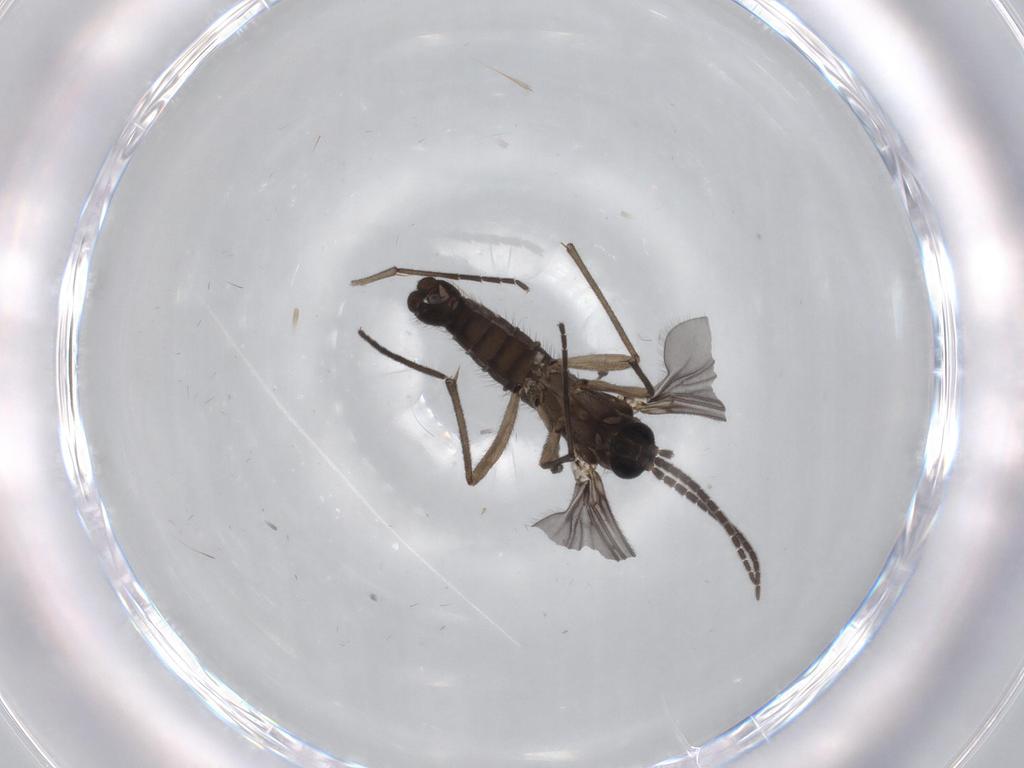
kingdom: Animalia
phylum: Arthropoda
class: Insecta
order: Diptera
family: Sciaridae
